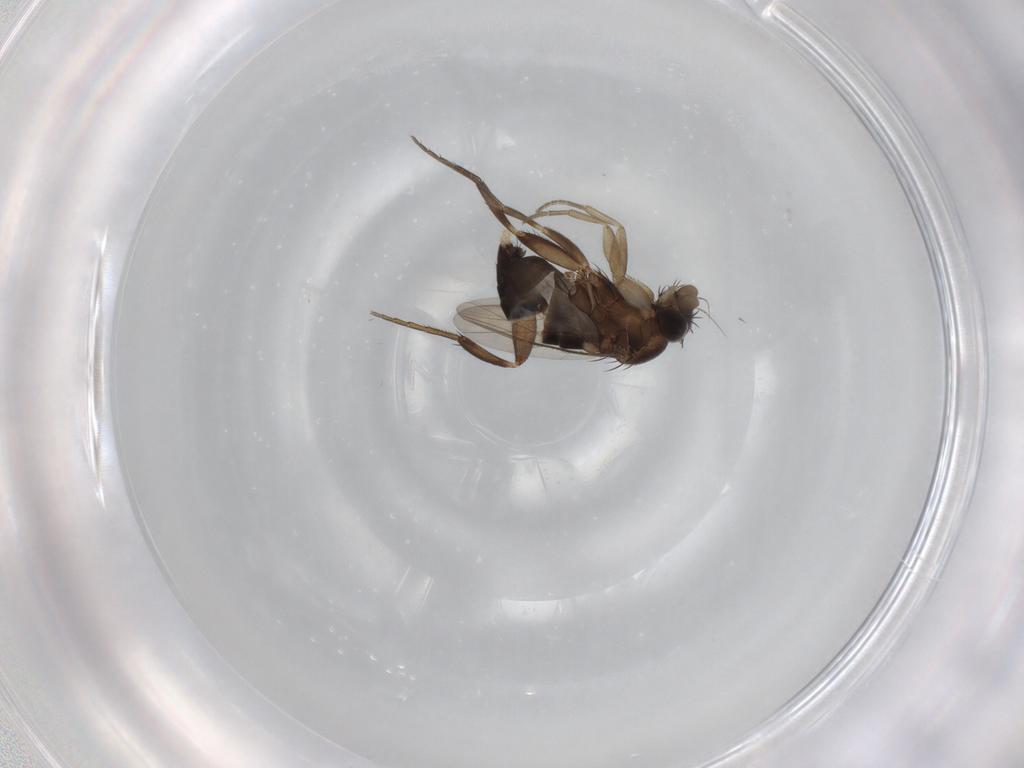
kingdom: Animalia
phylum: Arthropoda
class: Insecta
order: Diptera
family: Phoridae
